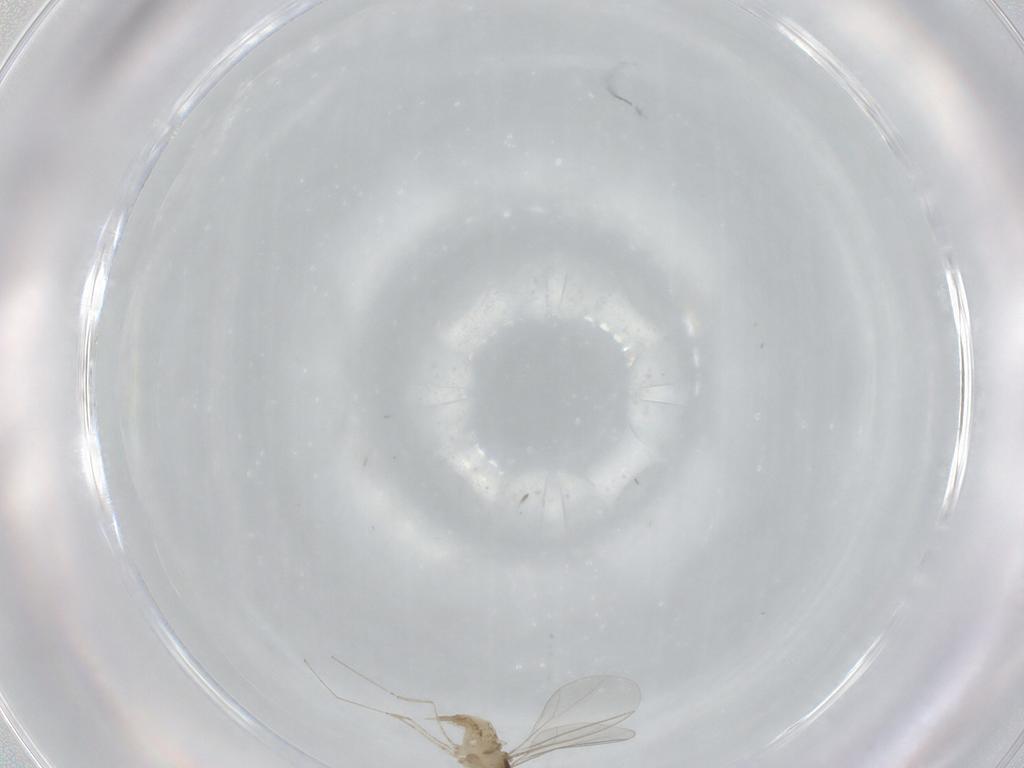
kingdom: Animalia
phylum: Arthropoda
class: Insecta
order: Diptera
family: Cecidomyiidae
